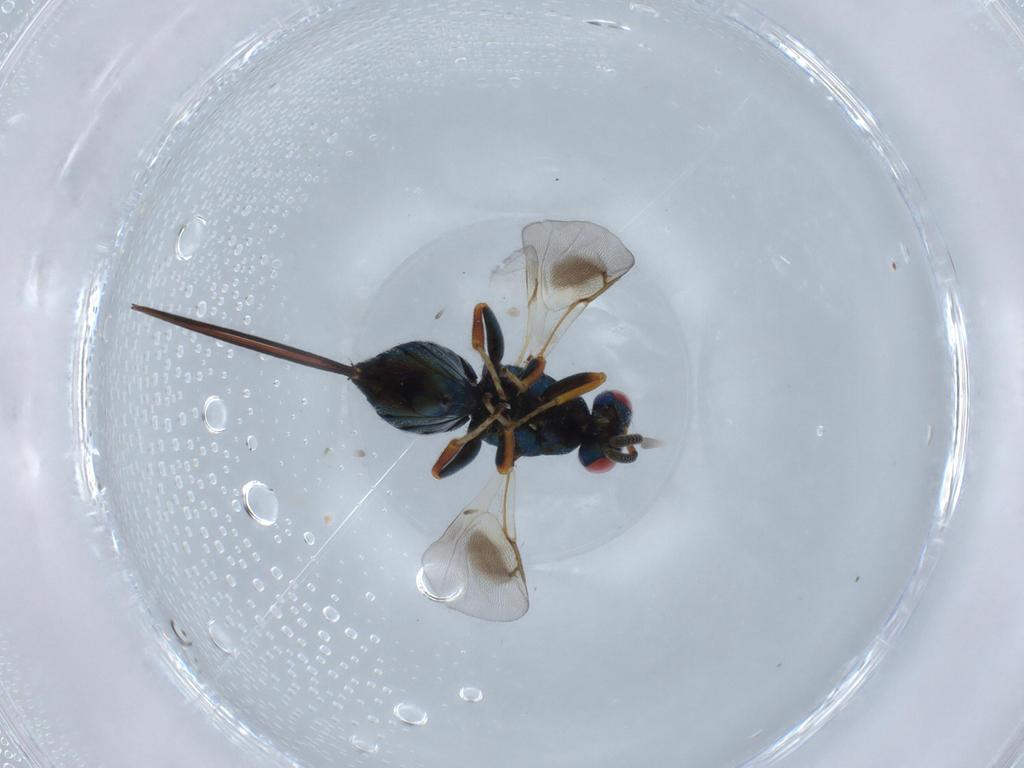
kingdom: Animalia
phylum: Arthropoda
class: Insecta
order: Hymenoptera
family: Torymidae
